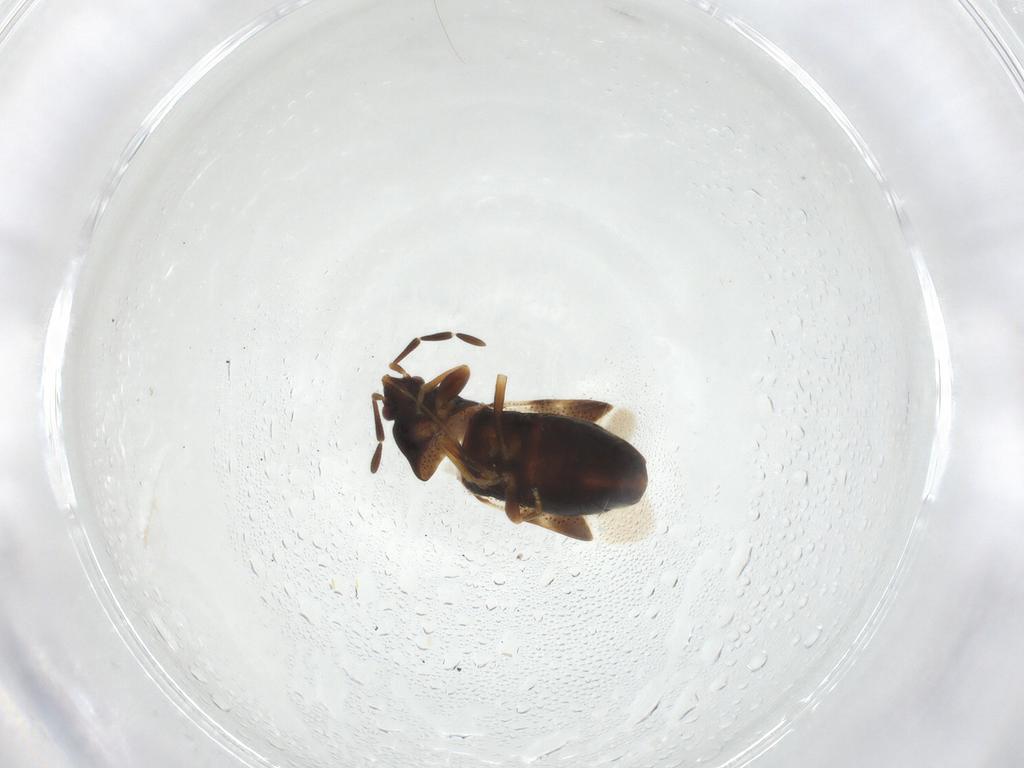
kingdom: Animalia
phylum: Arthropoda
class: Insecta
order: Hemiptera
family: Rhyparochromidae
